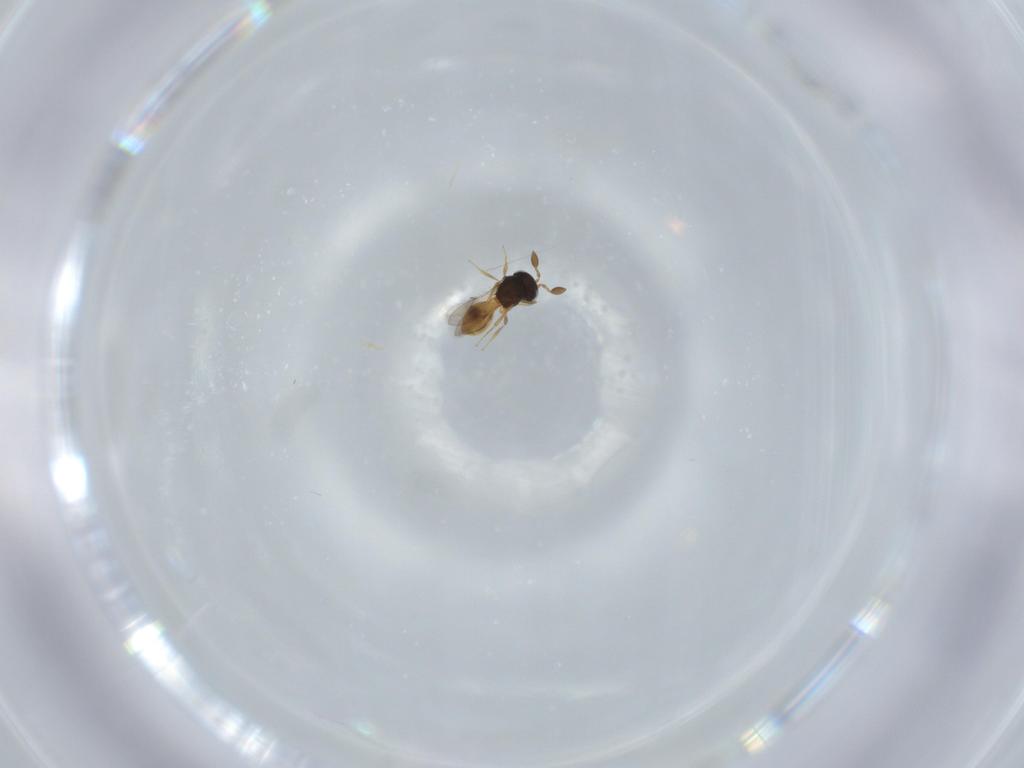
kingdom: Animalia
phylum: Arthropoda
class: Insecta
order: Hymenoptera
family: Scelionidae
